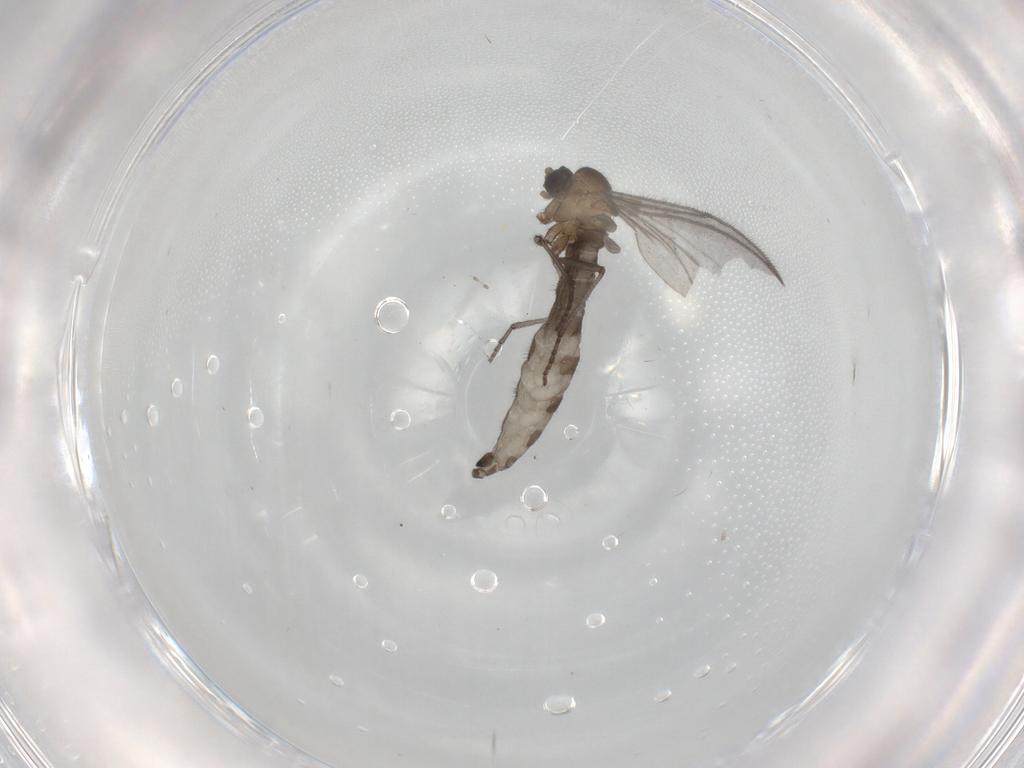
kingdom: Animalia
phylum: Arthropoda
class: Insecta
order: Diptera
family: Sciaridae
